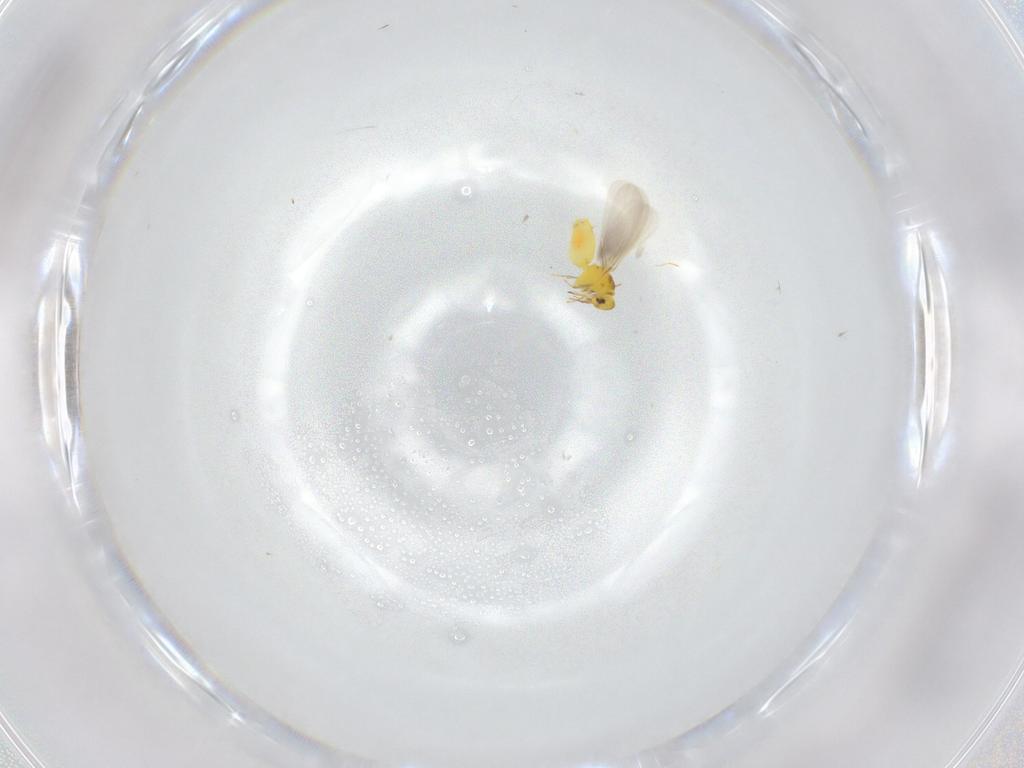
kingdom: Animalia
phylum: Arthropoda
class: Insecta
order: Hemiptera
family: Aleyrodidae
